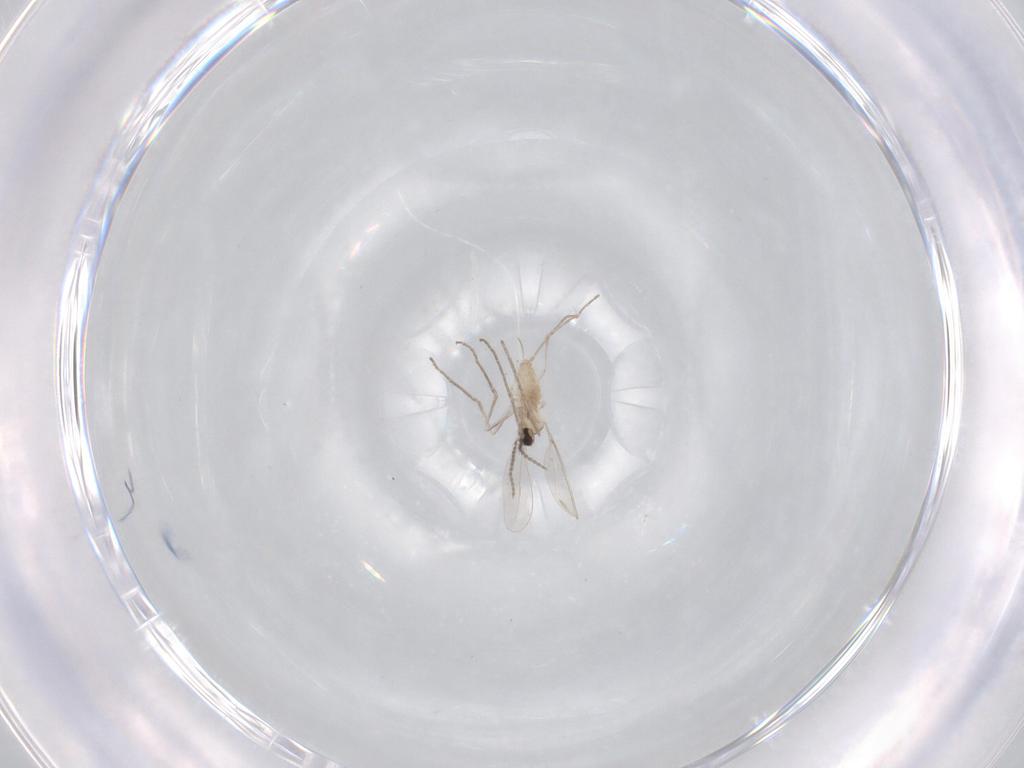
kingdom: Animalia
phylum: Arthropoda
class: Insecta
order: Diptera
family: Cecidomyiidae
